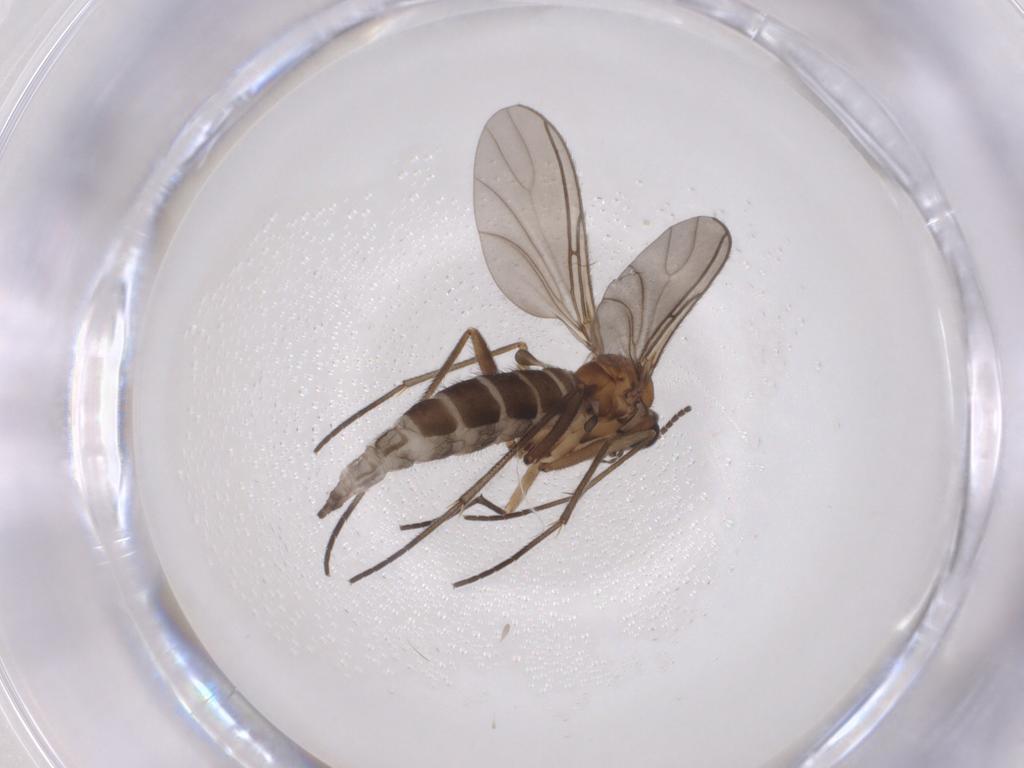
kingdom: Animalia
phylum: Arthropoda
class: Insecta
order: Diptera
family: Sciaridae
